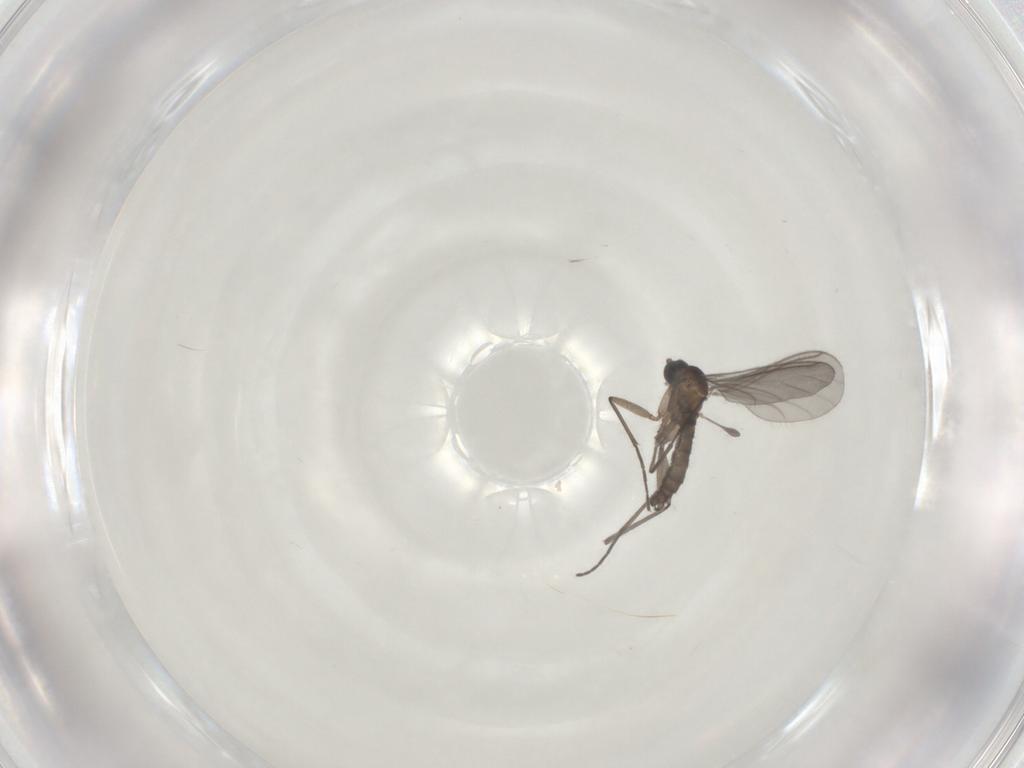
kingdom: Animalia
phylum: Arthropoda
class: Insecta
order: Diptera
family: Sciaridae
